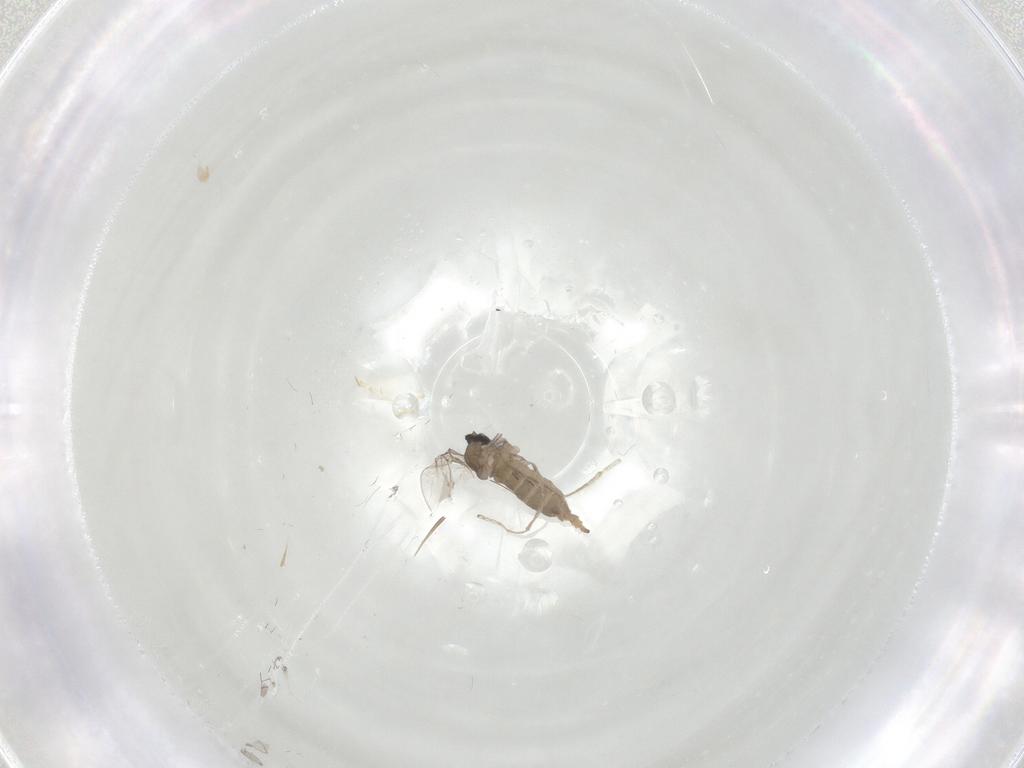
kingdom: Animalia
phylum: Arthropoda
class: Insecta
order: Diptera
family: Cecidomyiidae
